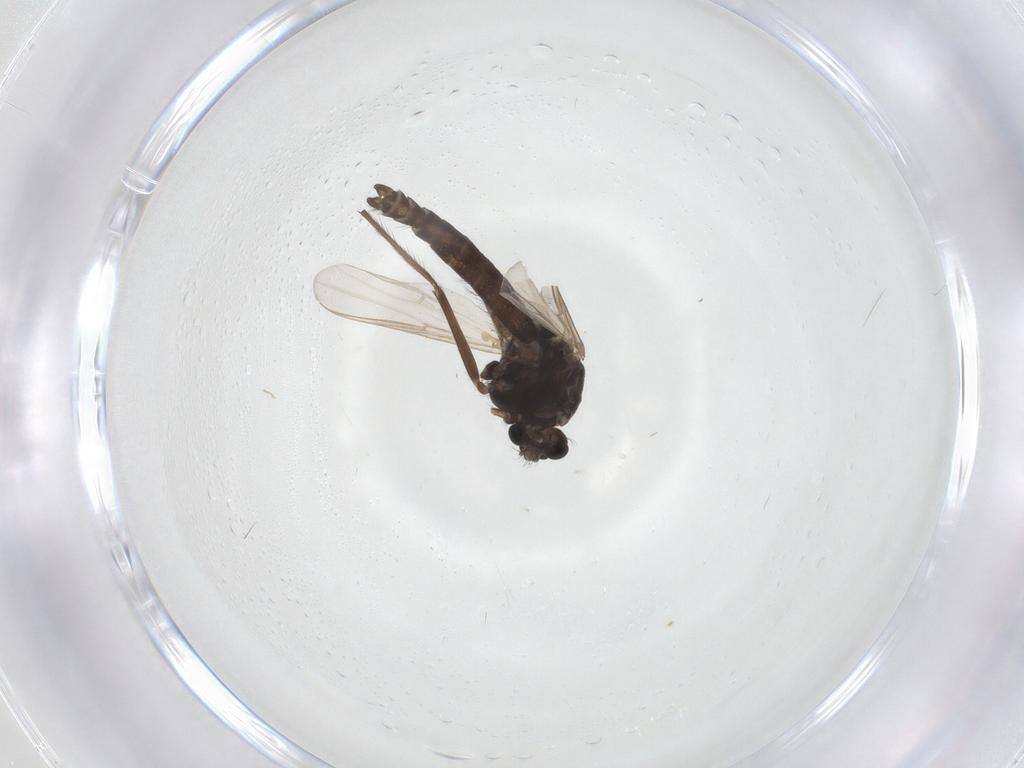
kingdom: Animalia
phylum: Arthropoda
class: Insecta
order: Diptera
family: Chironomidae
